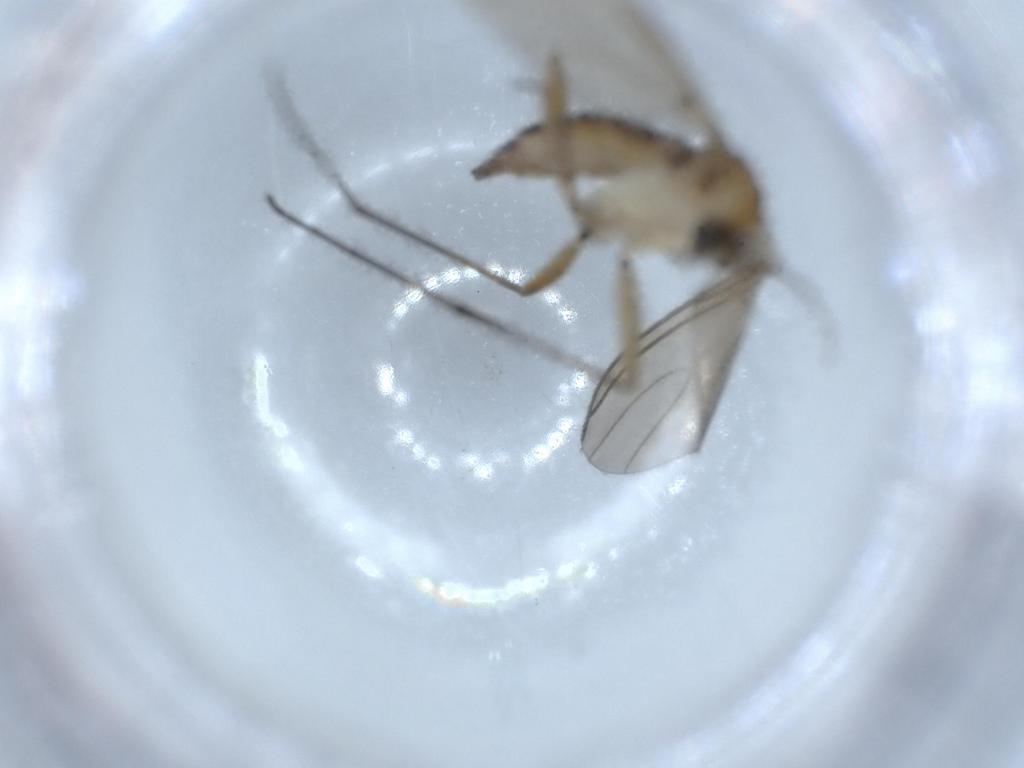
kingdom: Animalia
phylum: Arthropoda
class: Insecta
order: Diptera
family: Sciaridae
